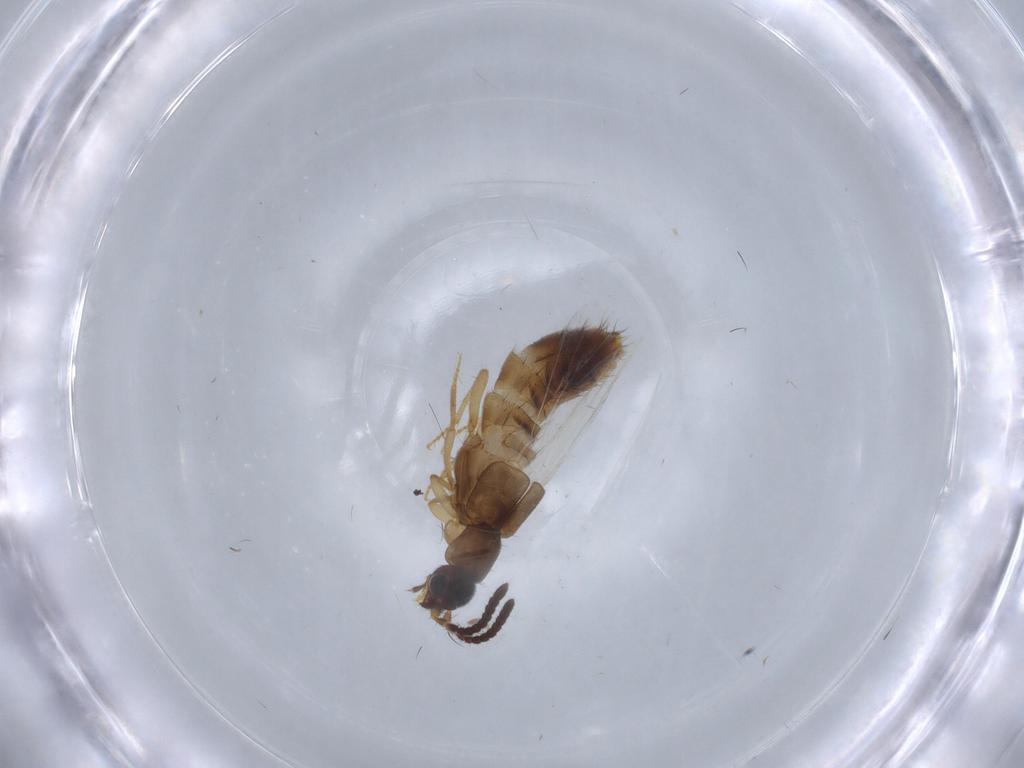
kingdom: Animalia
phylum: Arthropoda
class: Insecta
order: Coleoptera
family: Staphylinidae
